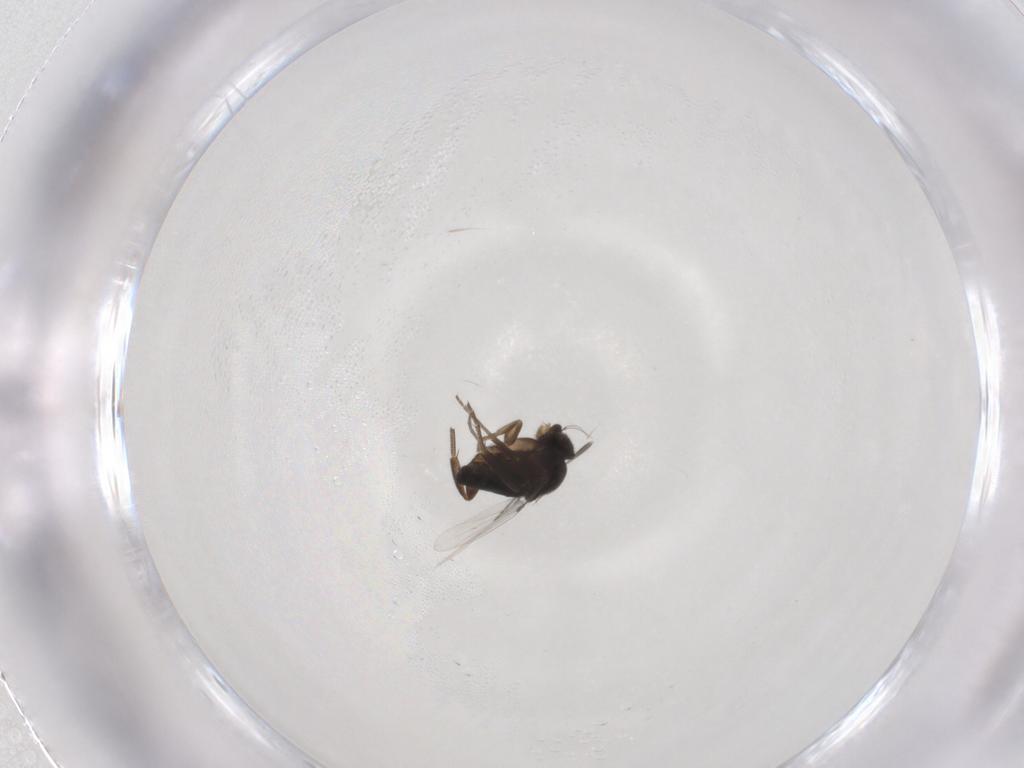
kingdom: Animalia
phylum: Arthropoda
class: Insecta
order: Diptera
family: Phoridae
